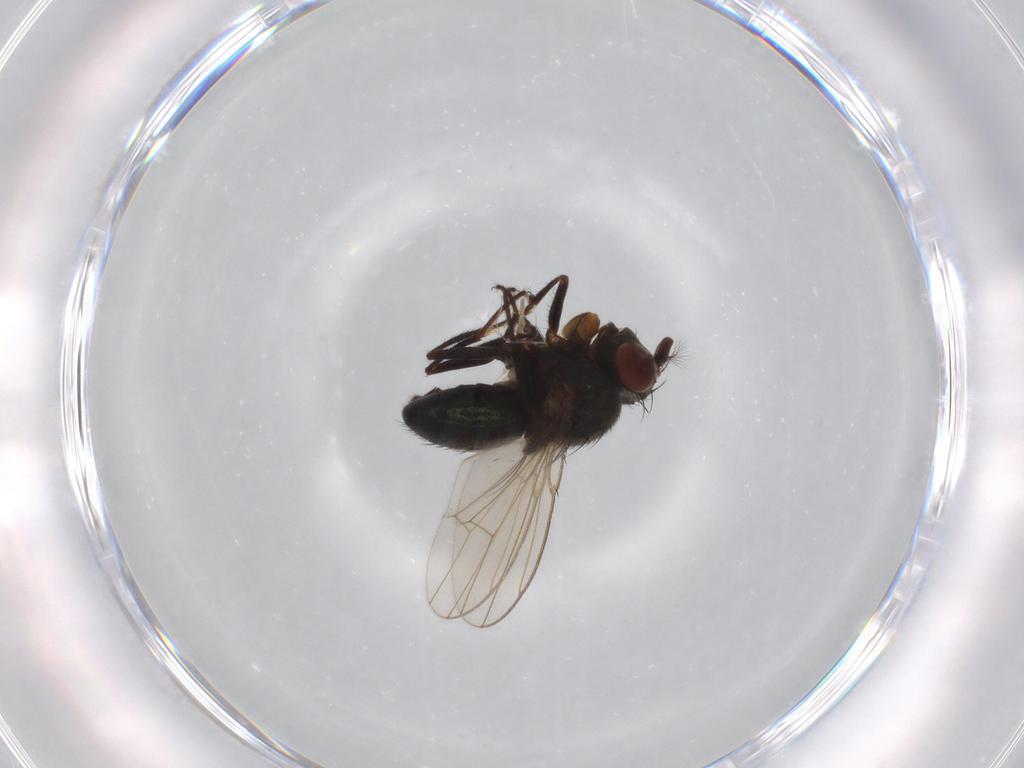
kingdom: Animalia
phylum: Arthropoda
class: Insecta
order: Diptera
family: Ephydridae
